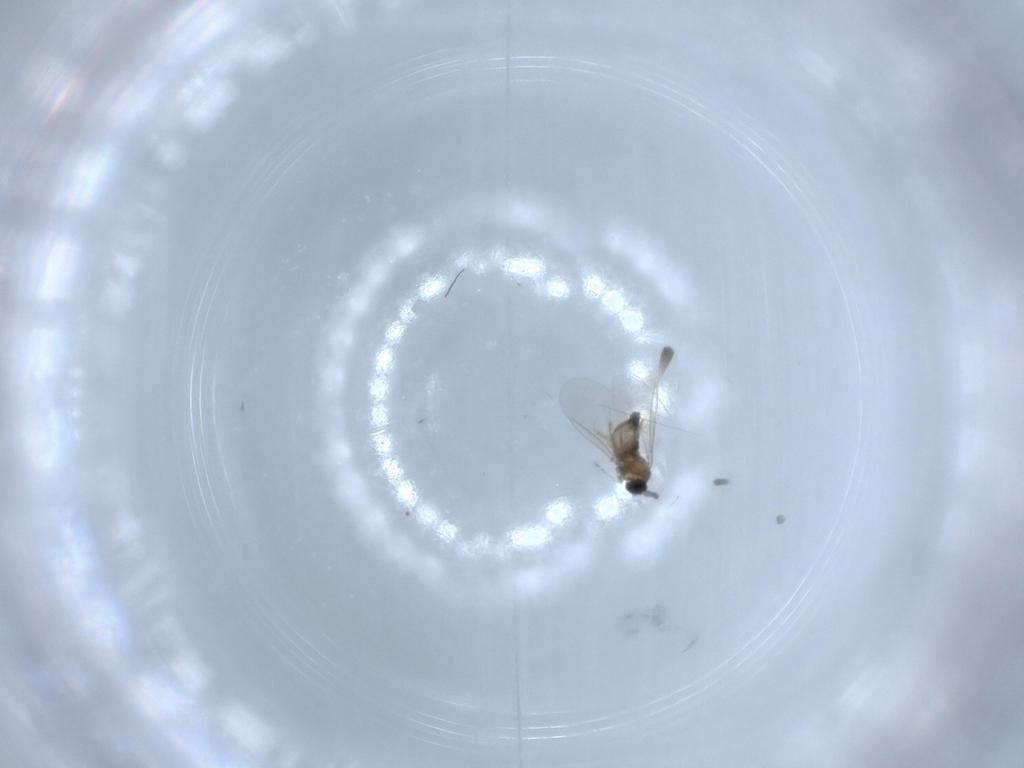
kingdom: Animalia
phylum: Arthropoda
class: Insecta
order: Diptera
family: Cecidomyiidae
